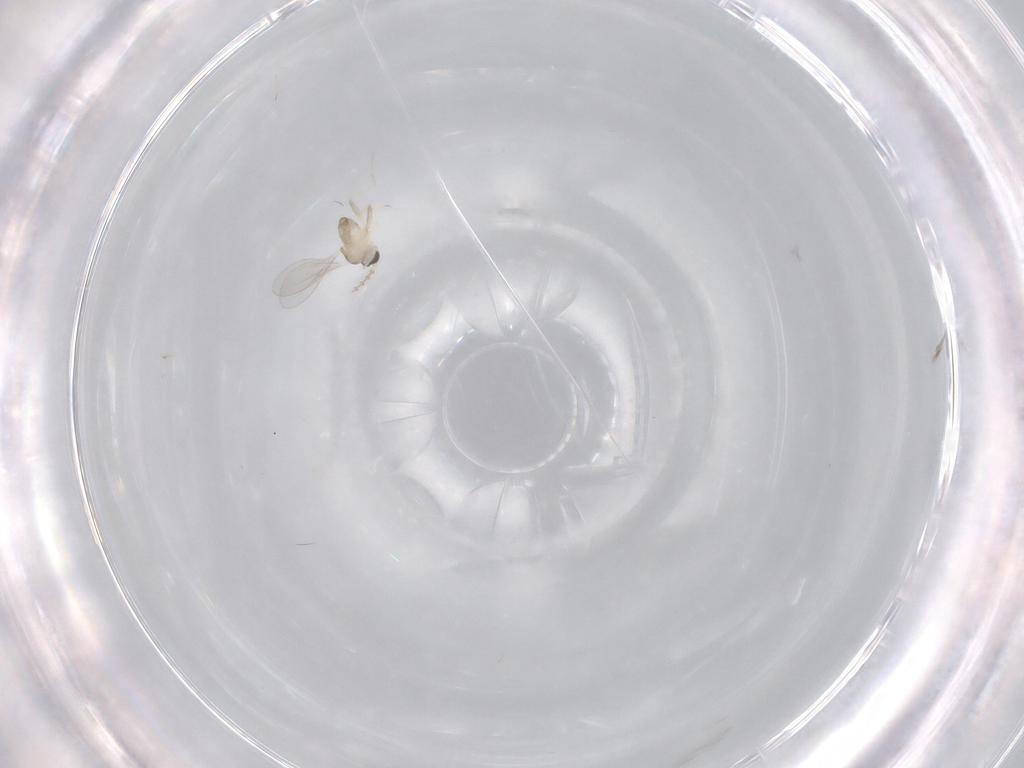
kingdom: Animalia
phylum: Arthropoda
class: Insecta
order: Diptera
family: Cecidomyiidae
